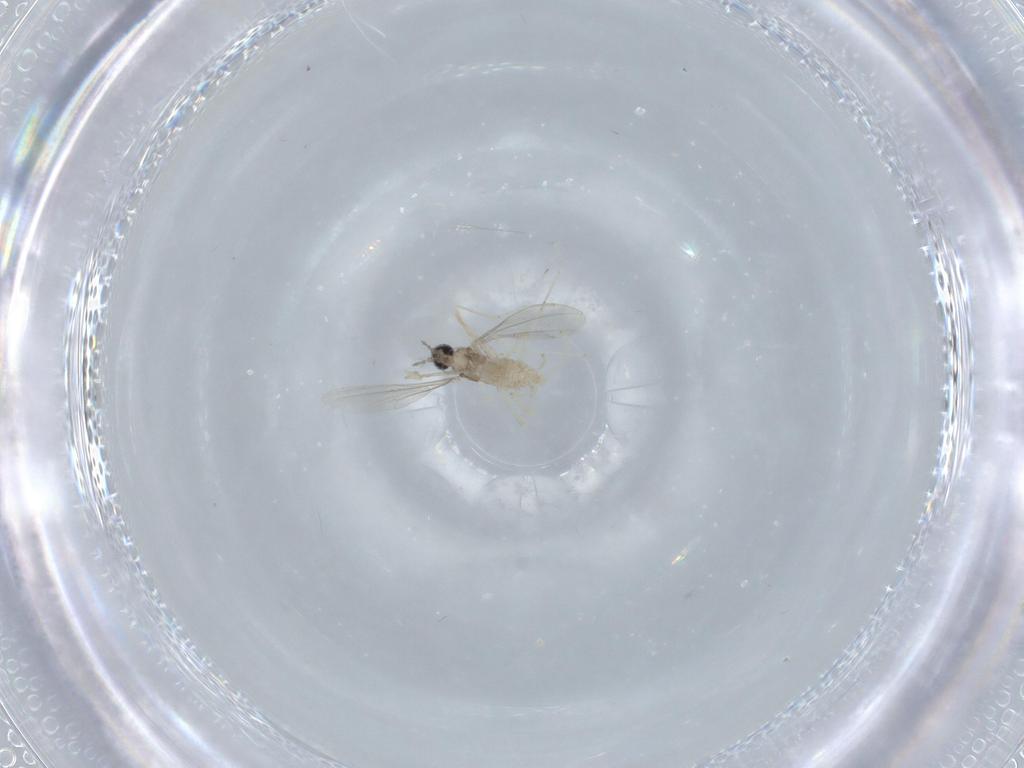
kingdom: Animalia
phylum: Arthropoda
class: Insecta
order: Diptera
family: Cecidomyiidae
